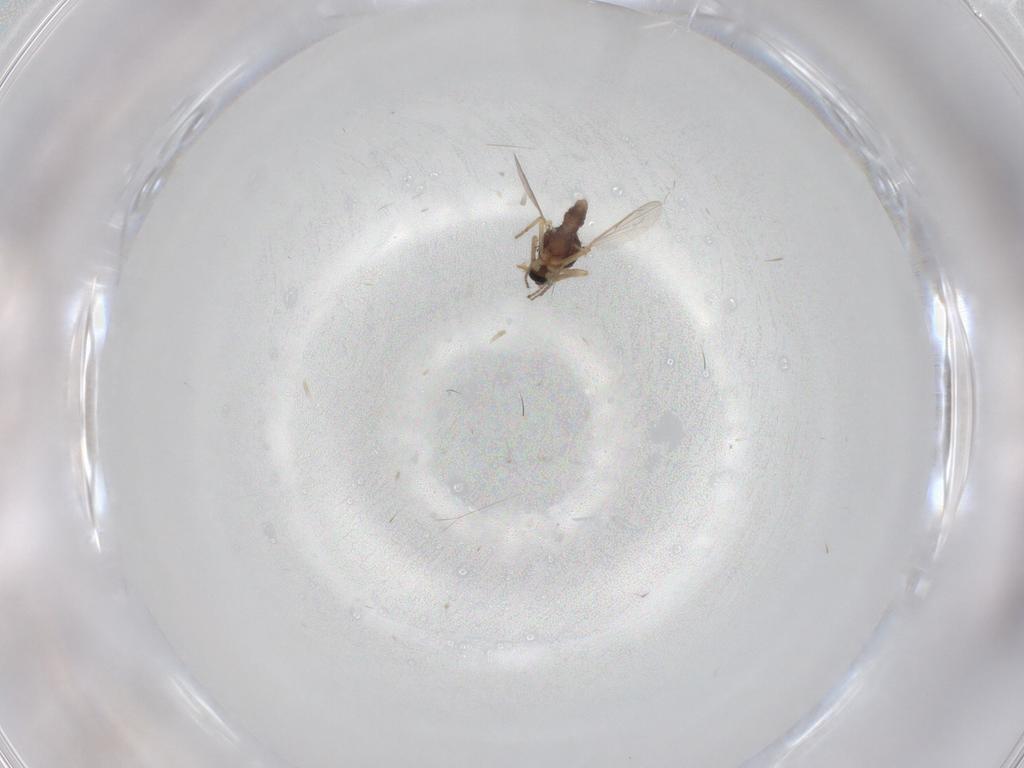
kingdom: Animalia
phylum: Arthropoda
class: Insecta
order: Diptera
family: Ceratopogonidae
